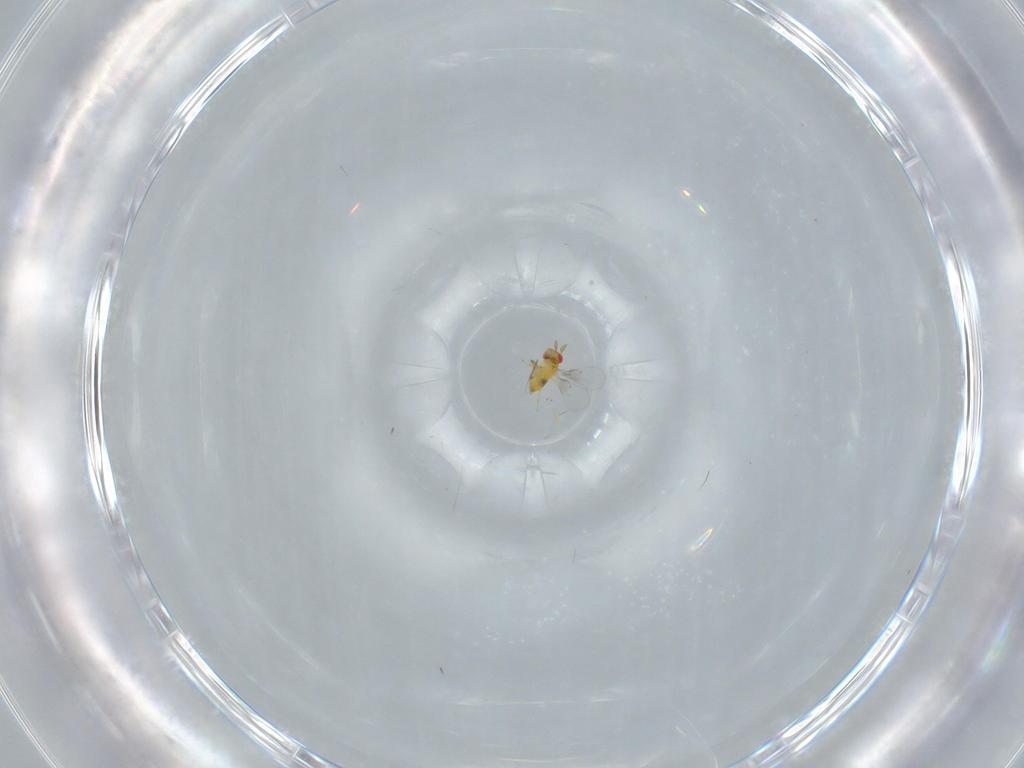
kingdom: Animalia
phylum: Arthropoda
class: Insecta
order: Hymenoptera
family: Trichogrammatidae
